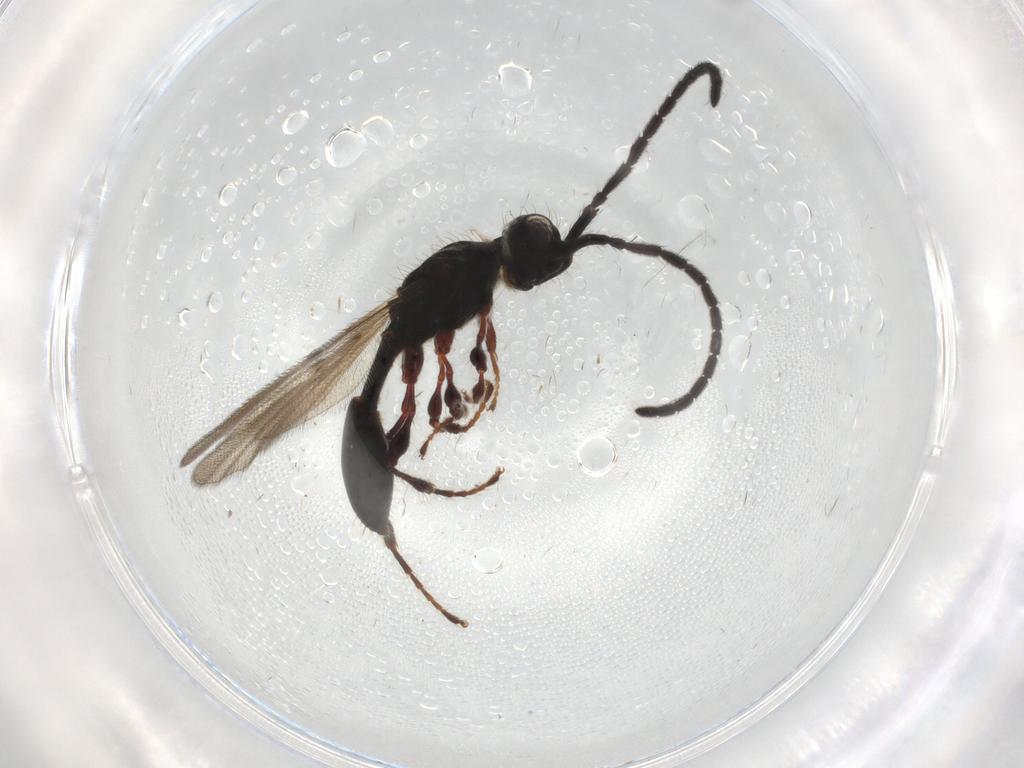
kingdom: Animalia
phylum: Arthropoda
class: Insecta
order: Hymenoptera
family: Diapriidae
